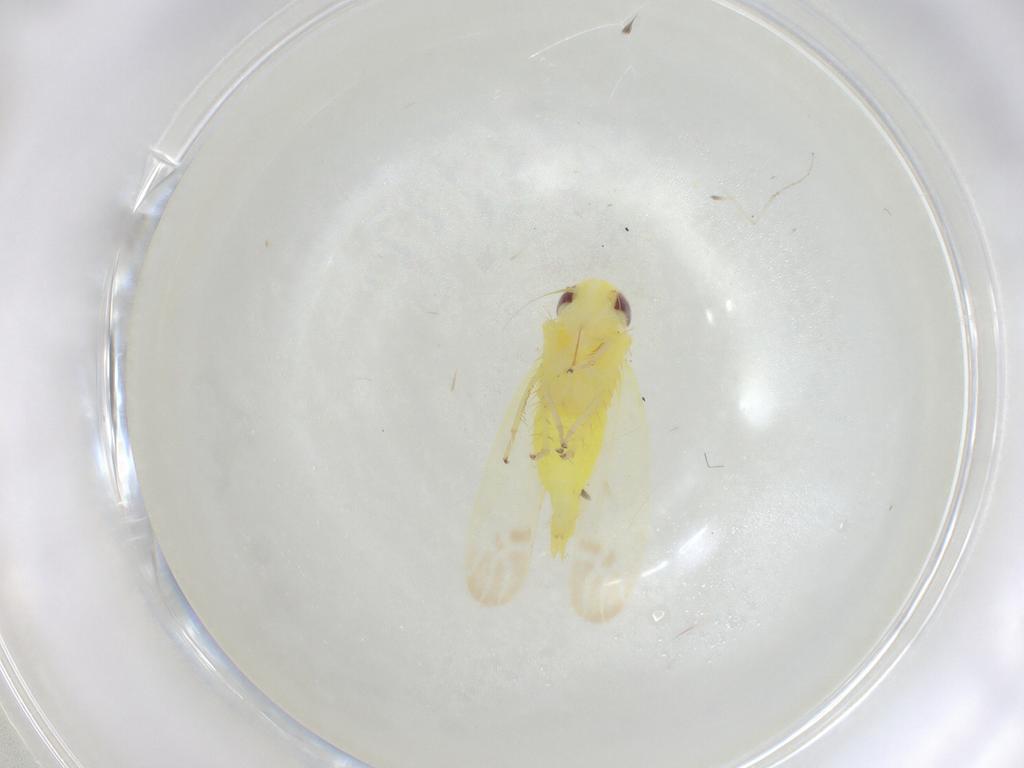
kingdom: Animalia
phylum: Arthropoda
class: Insecta
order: Hemiptera
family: Cicadellidae
